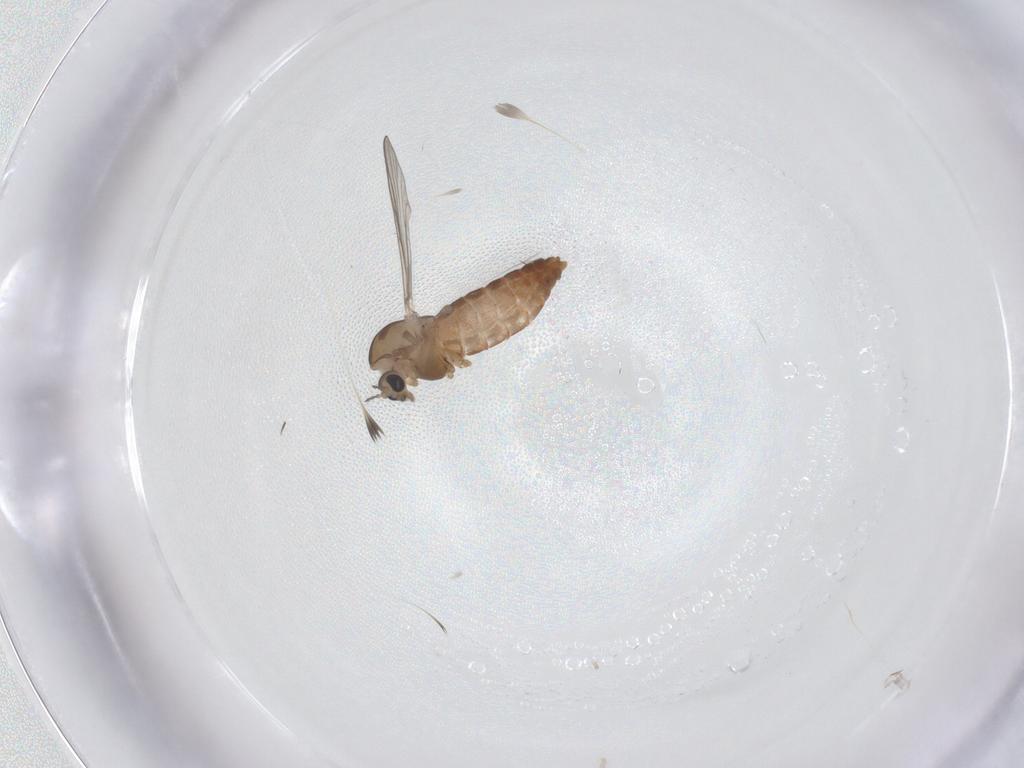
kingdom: Animalia
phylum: Arthropoda
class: Insecta
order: Diptera
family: Chironomidae
